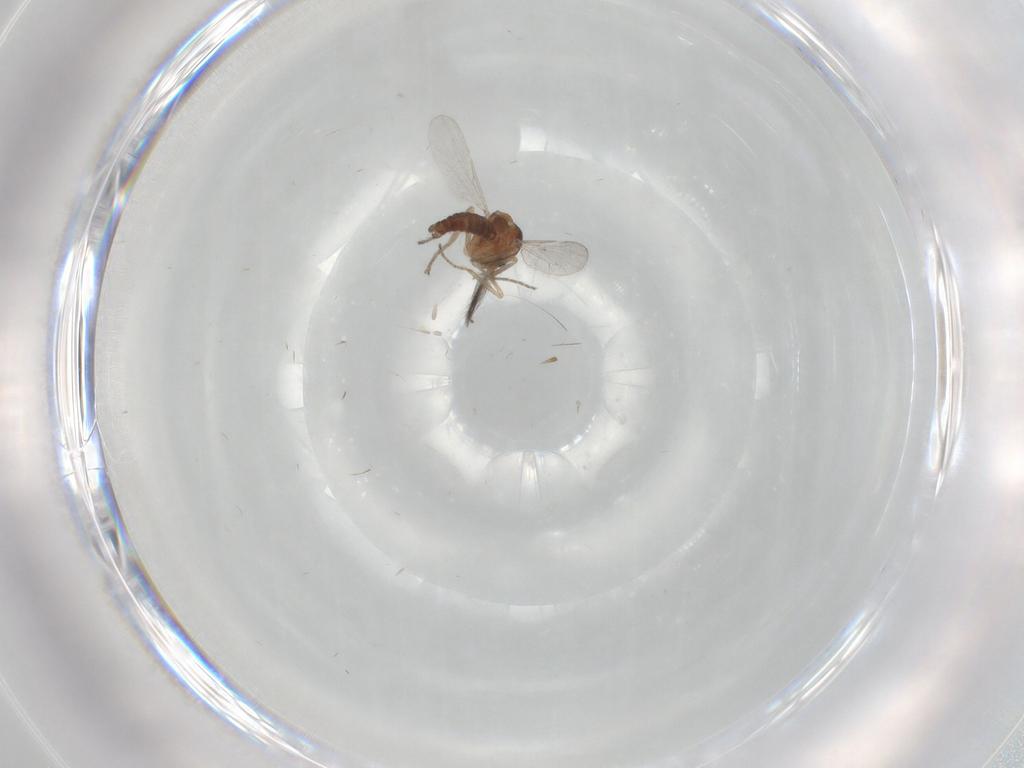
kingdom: Animalia
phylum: Arthropoda
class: Insecta
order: Diptera
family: Ceratopogonidae
